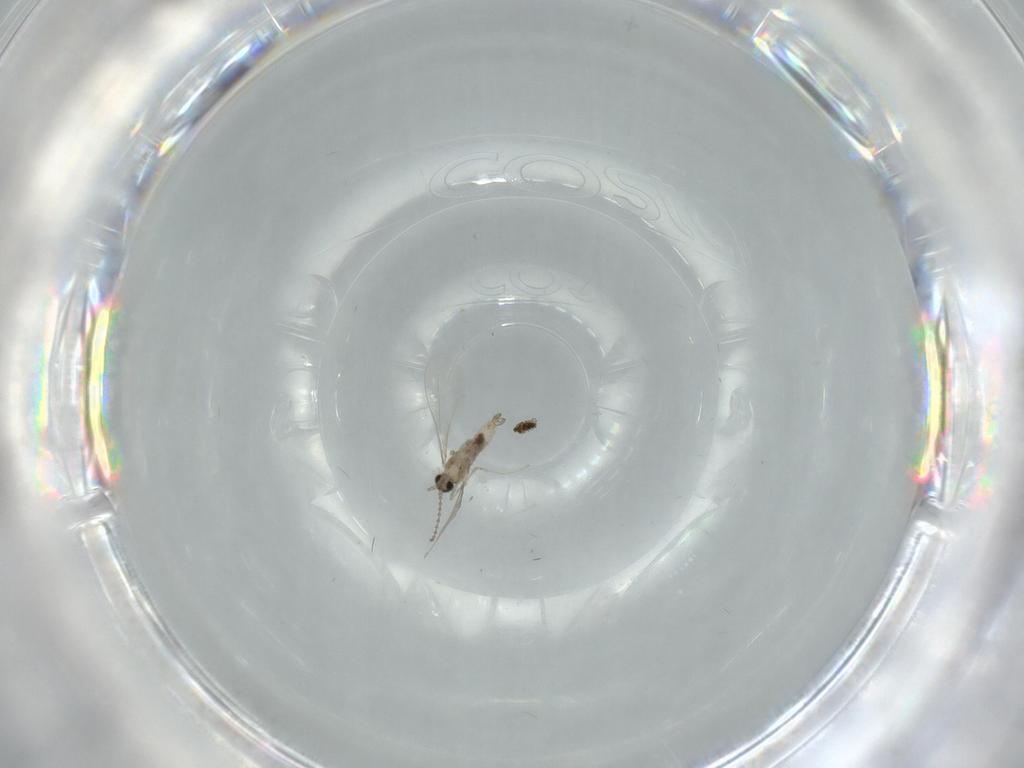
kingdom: Animalia
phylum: Arthropoda
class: Insecta
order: Diptera
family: Cecidomyiidae
